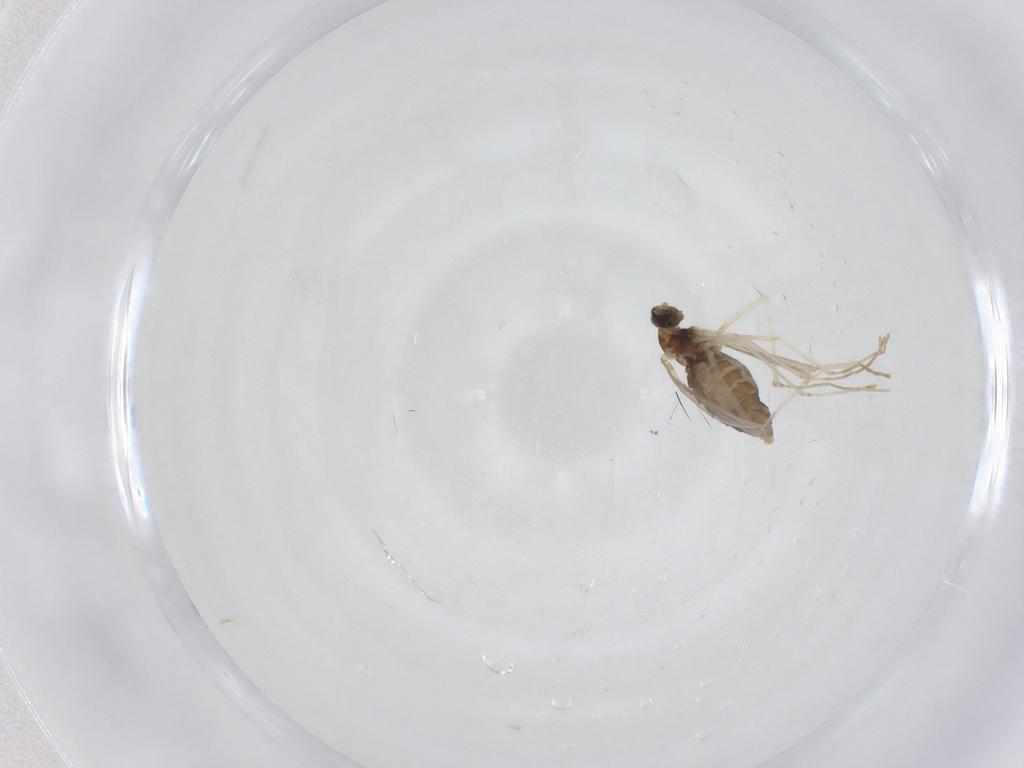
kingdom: Animalia
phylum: Arthropoda
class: Insecta
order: Diptera
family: Cecidomyiidae
